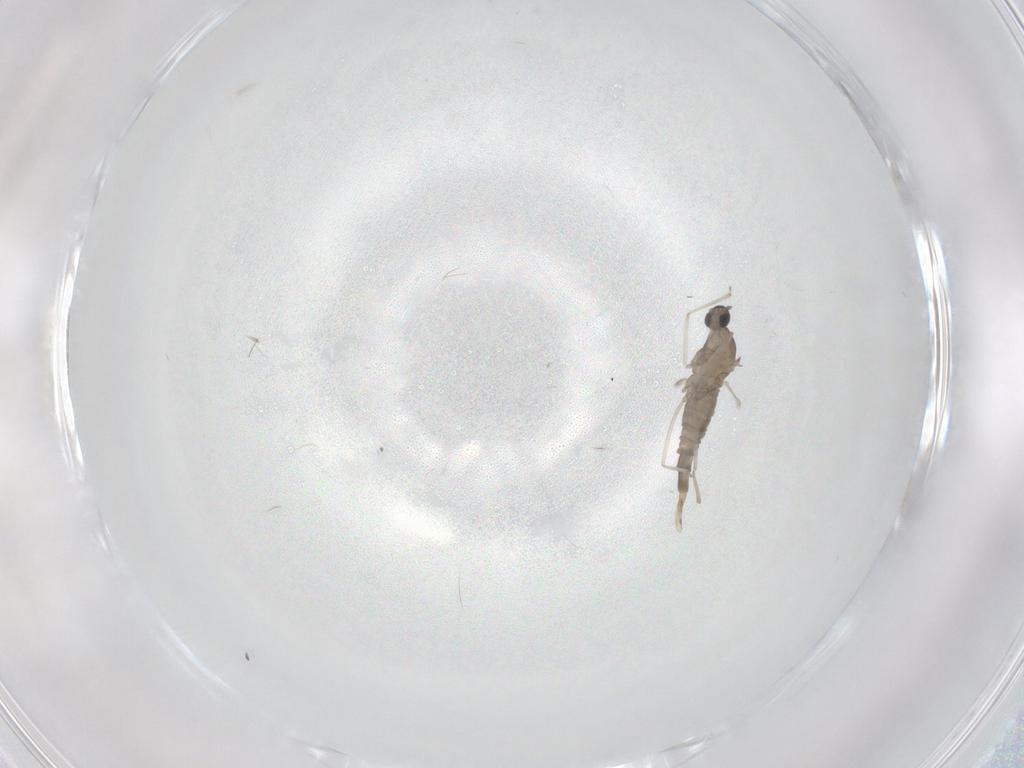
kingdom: Animalia
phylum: Arthropoda
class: Insecta
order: Diptera
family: Cecidomyiidae
